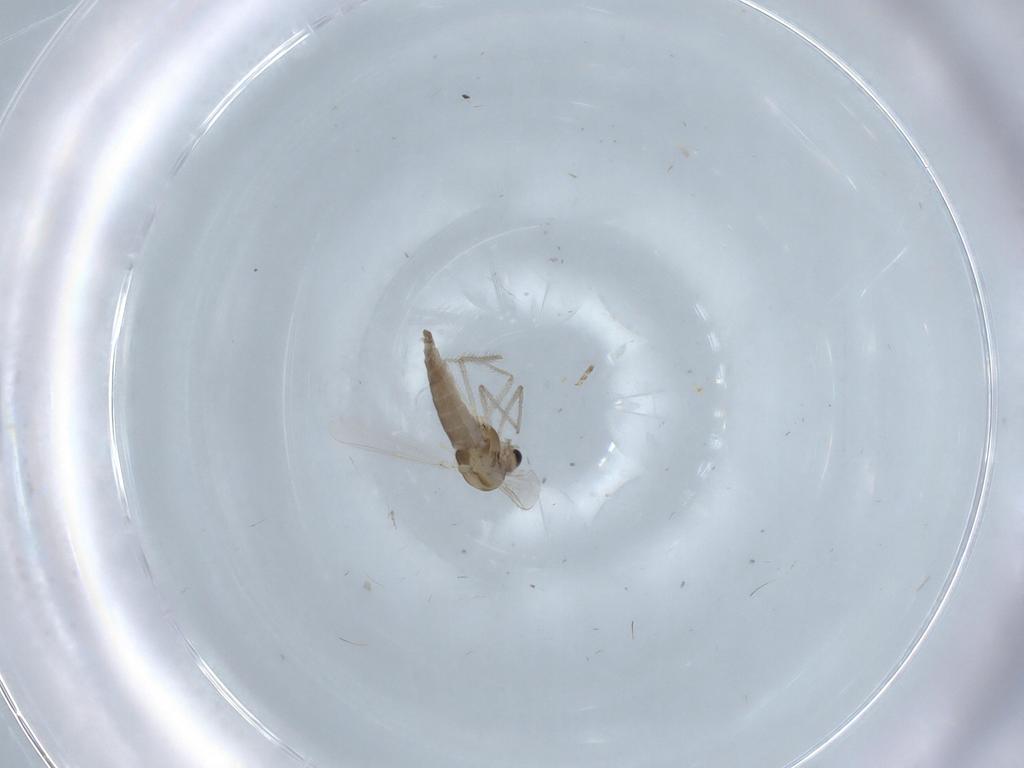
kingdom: Animalia
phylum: Arthropoda
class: Insecta
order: Diptera
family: Chironomidae
